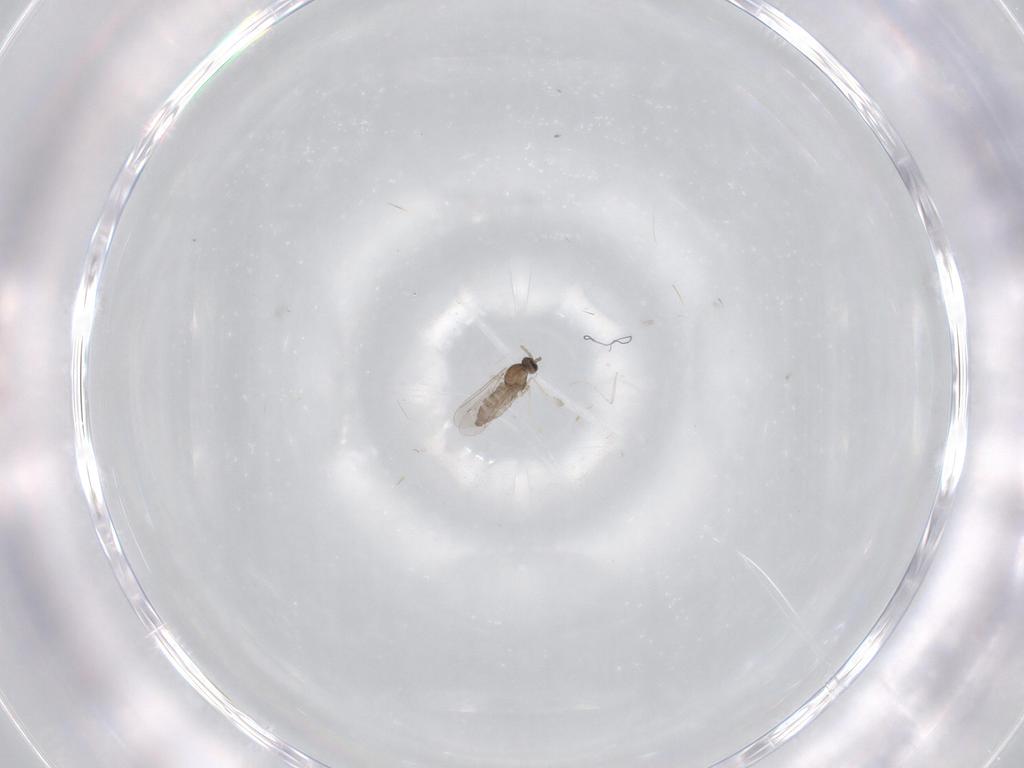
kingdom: Animalia
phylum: Arthropoda
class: Insecta
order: Diptera
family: Cecidomyiidae
